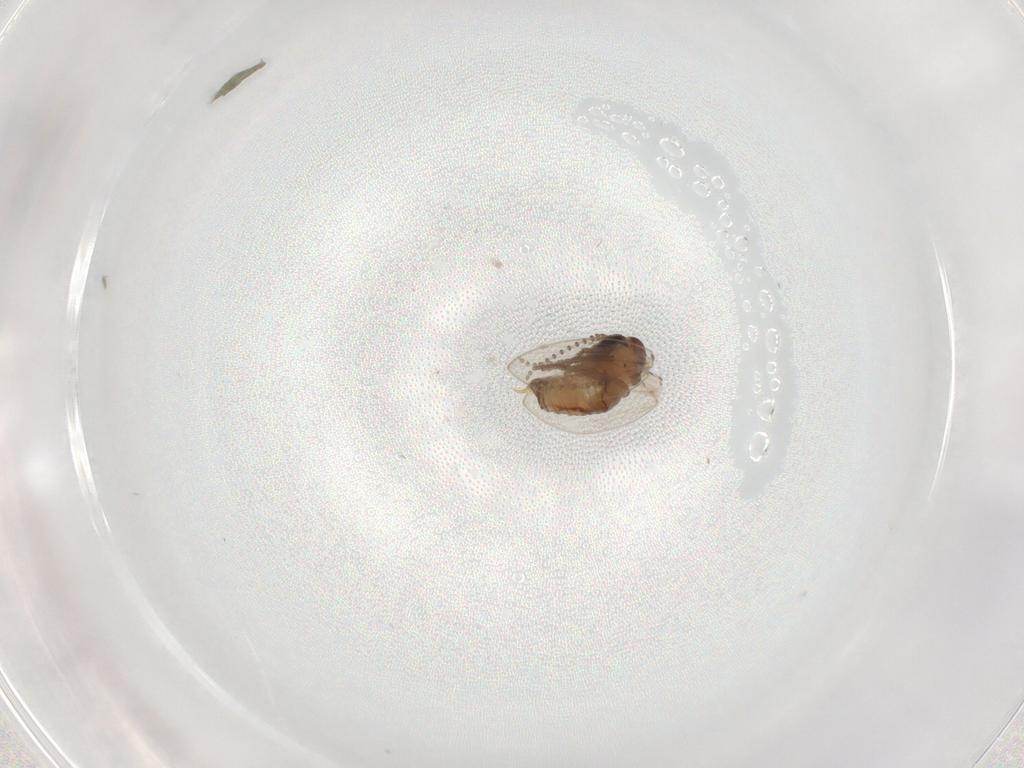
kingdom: Animalia
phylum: Arthropoda
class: Insecta
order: Diptera
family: Psychodidae
